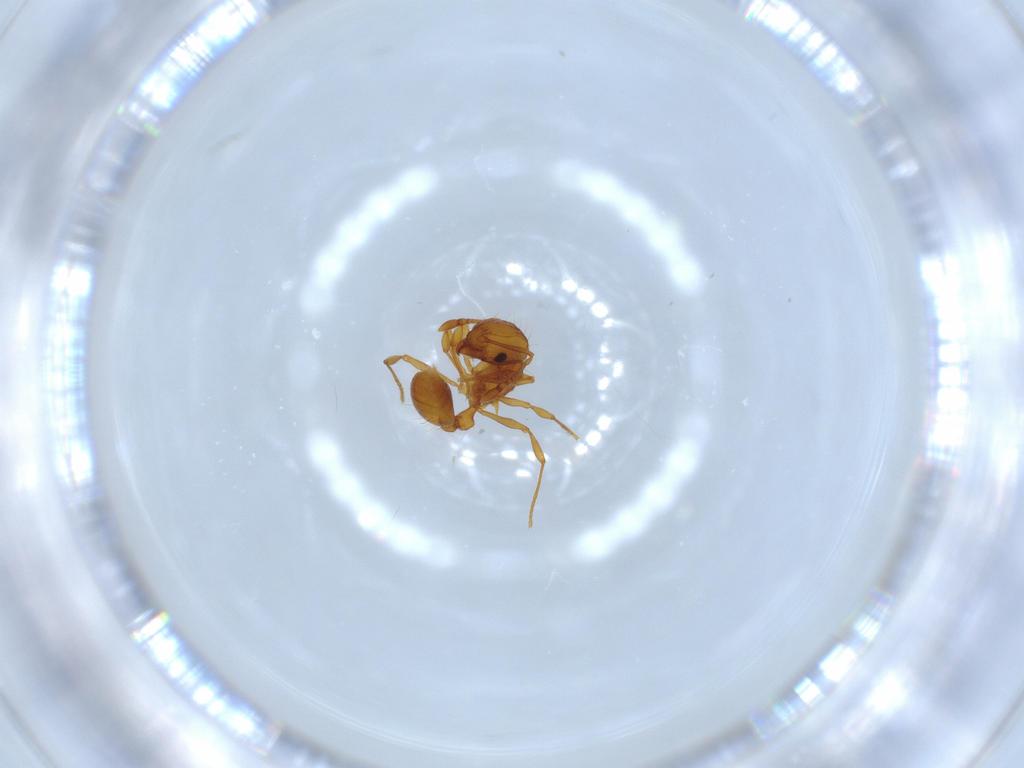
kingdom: Animalia
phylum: Arthropoda
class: Insecta
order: Hymenoptera
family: Formicidae
